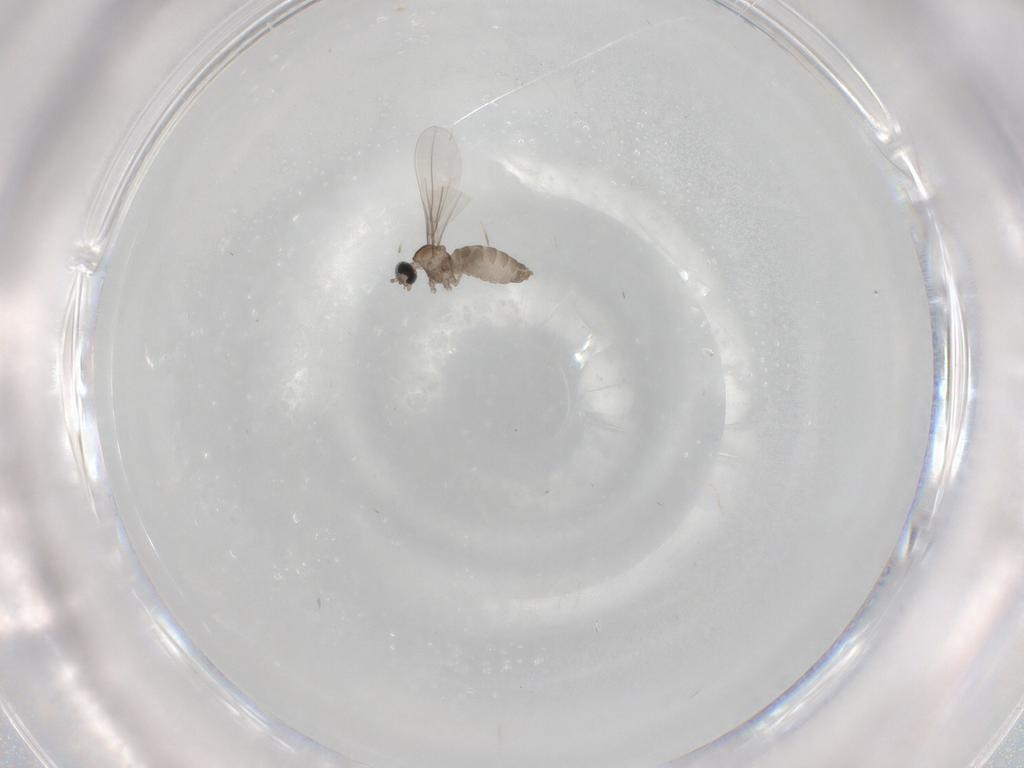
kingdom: Animalia
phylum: Arthropoda
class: Insecta
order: Diptera
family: Cecidomyiidae
